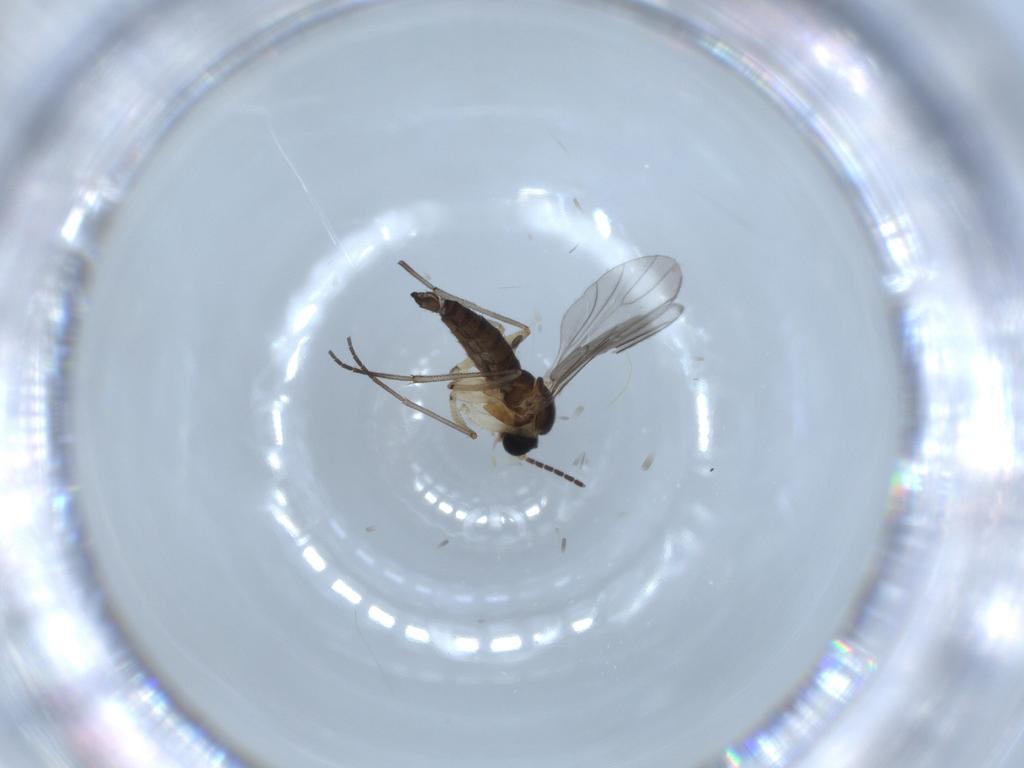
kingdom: Animalia
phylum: Arthropoda
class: Insecta
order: Diptera
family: Sciaridae
